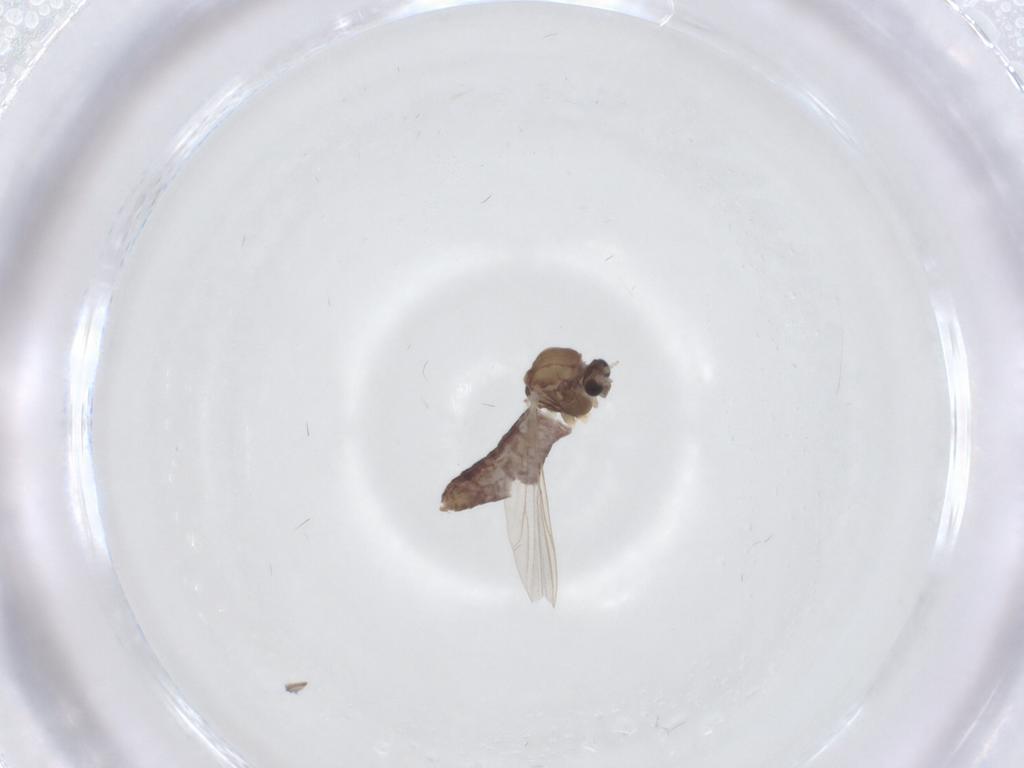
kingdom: Animalia
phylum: Arthropoda
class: Insecta
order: Diptera
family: Chironomidae
